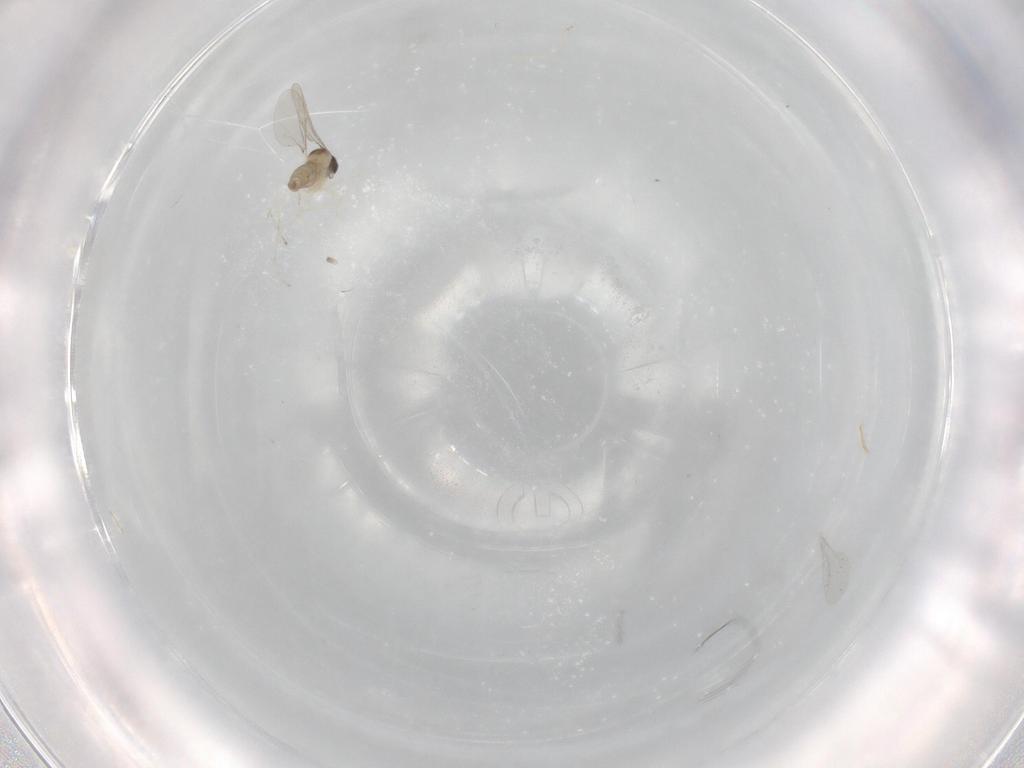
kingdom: Animalia
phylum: Arthropoda
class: Insecta
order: Diptera
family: Cecidomyiidae
